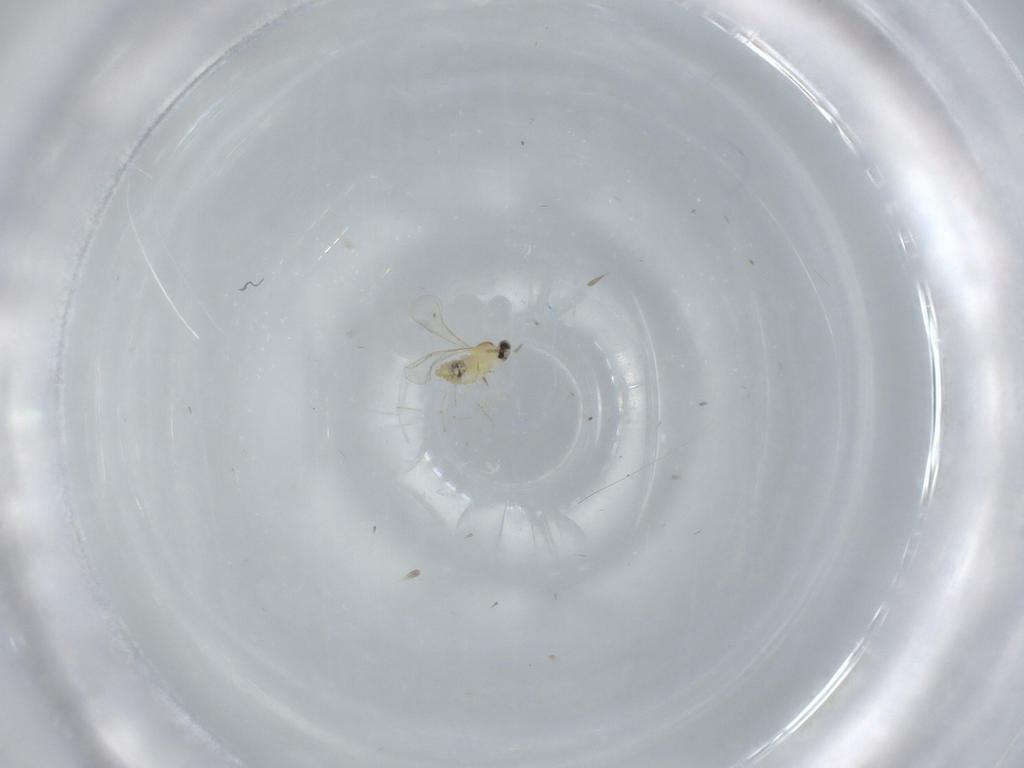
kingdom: Animalia
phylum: Arthropoda
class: Insecta
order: Diptera
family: Cecidomyiidae
